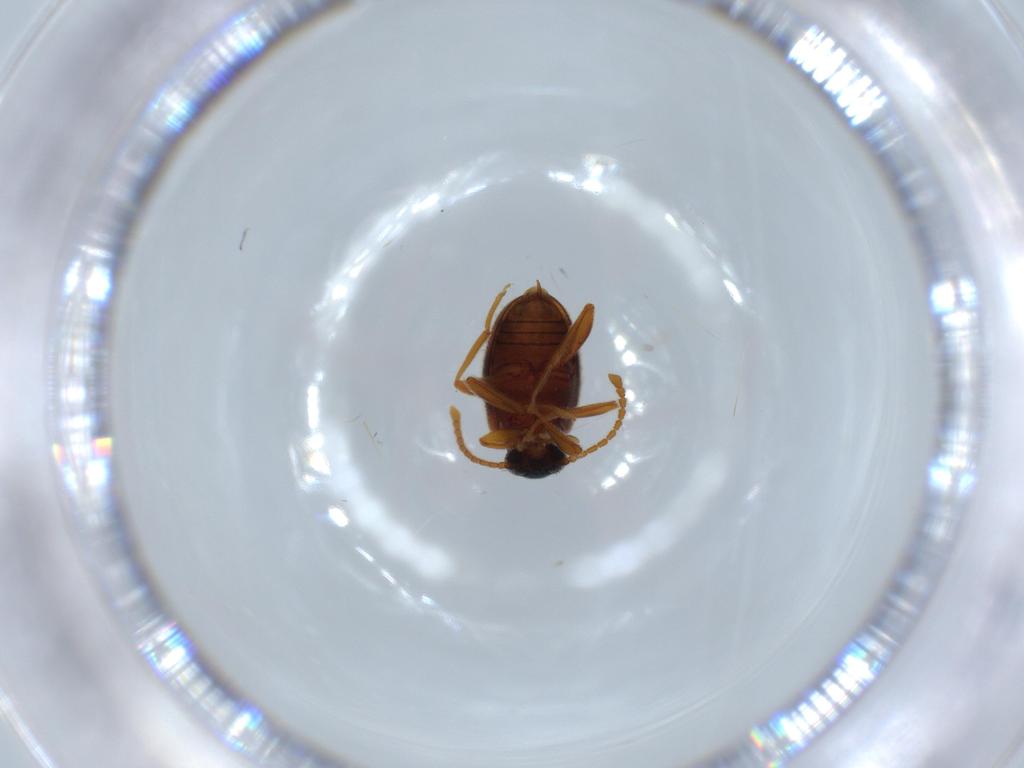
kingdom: Animalia
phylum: Arthropoda
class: Insecta
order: Coleoptera
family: Aderidae
